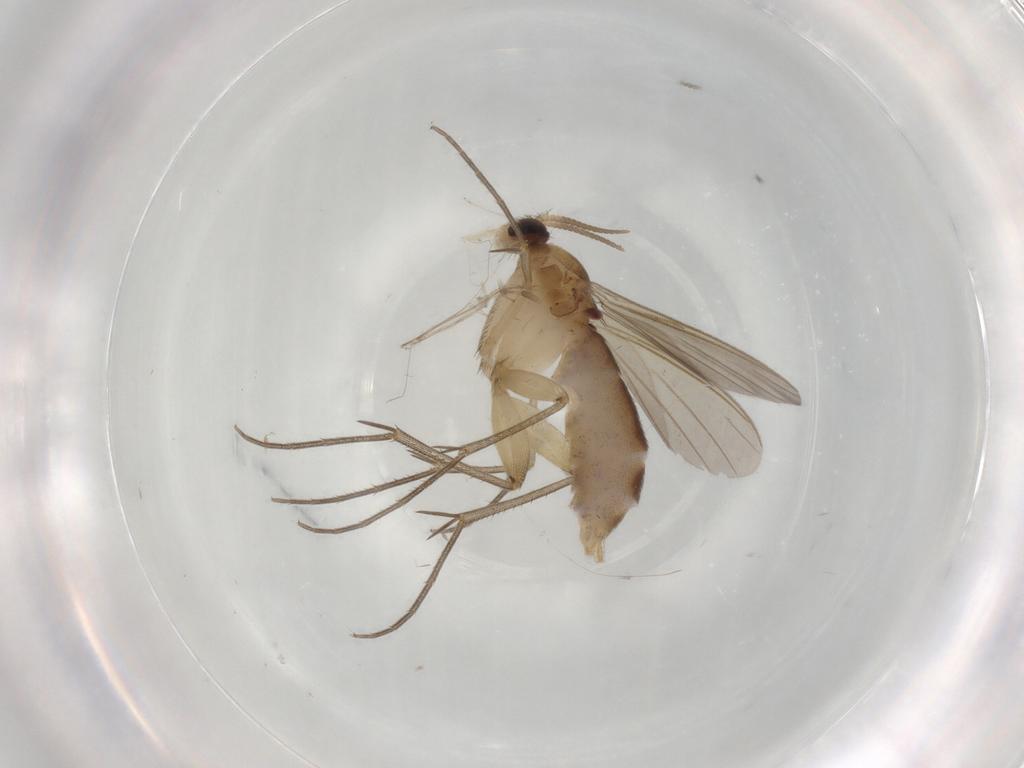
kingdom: Animalia
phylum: Arthropoda
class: Insecta
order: Diptera
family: Mycetophilidae
